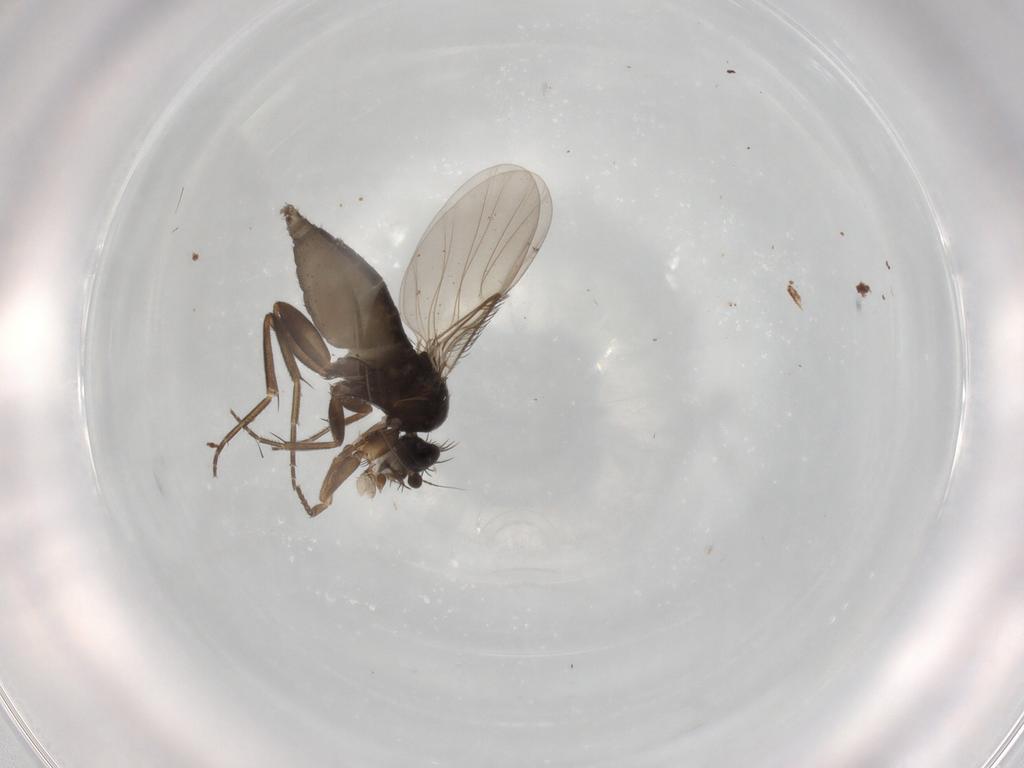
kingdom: Animalia
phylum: Arthropoda
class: Insecta
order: Diptera
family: Phoridae
